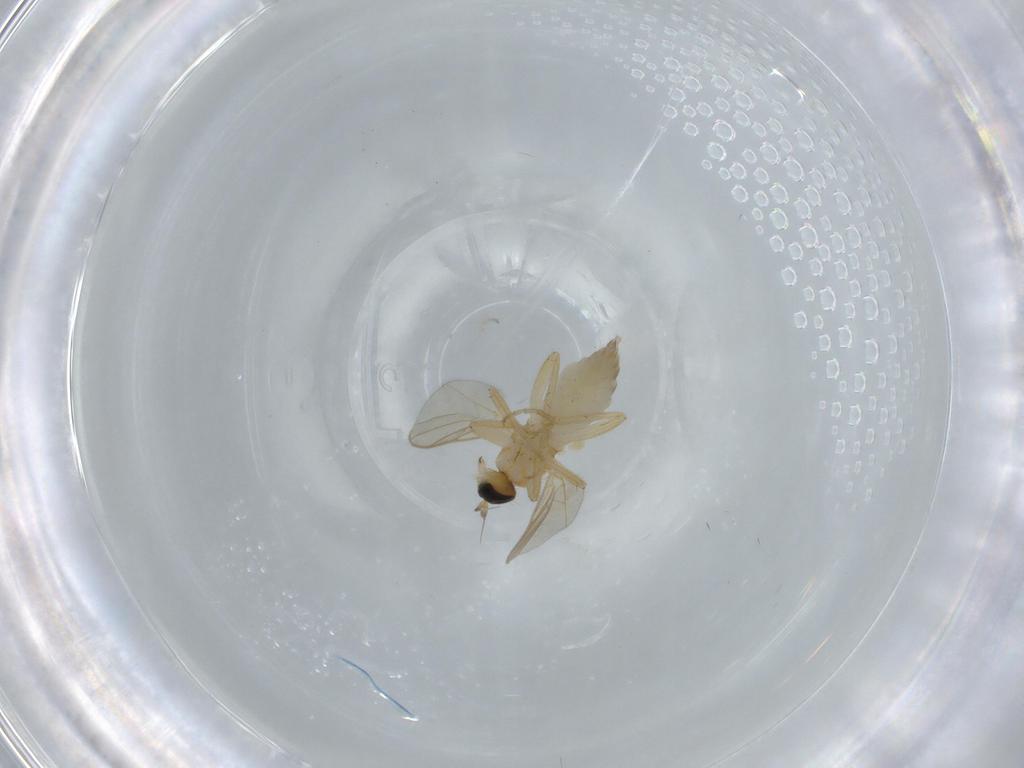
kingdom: Animalia
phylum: Arthropoda
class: Insecta
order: Diptera
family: Hybotidae
